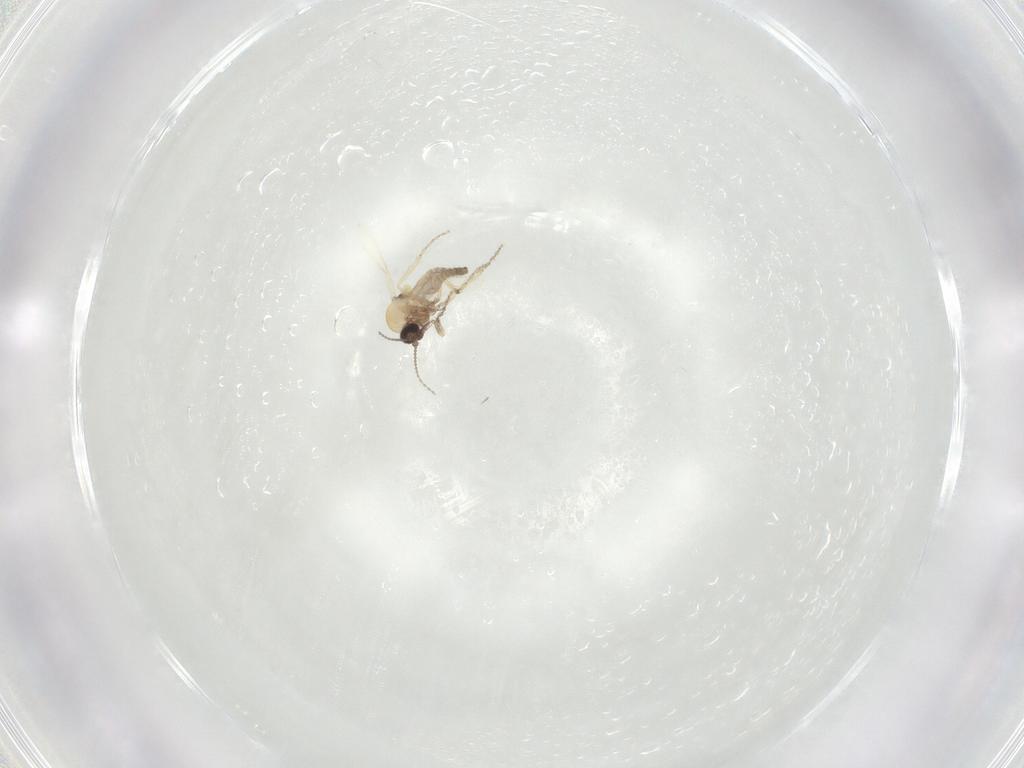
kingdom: Animalia
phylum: Arthropoda
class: Insecta
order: Diptera
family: Ceratopogonidae
